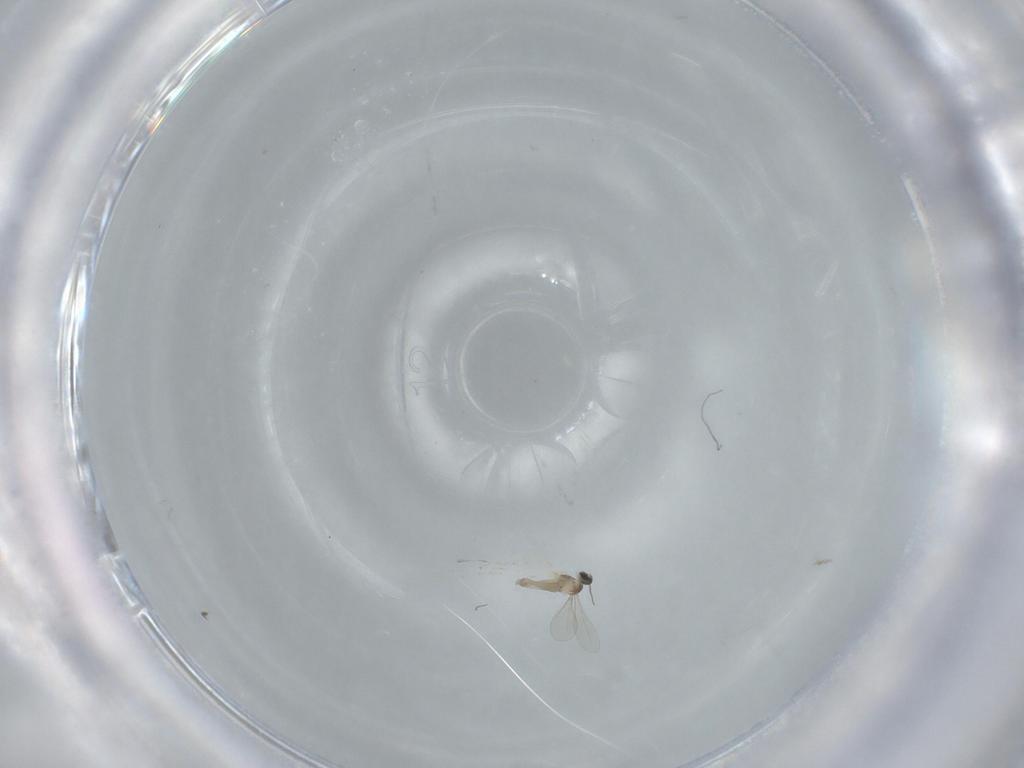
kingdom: Animalia
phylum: Arthropoda
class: Insecta
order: Diptera
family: Cecidomyiidae
